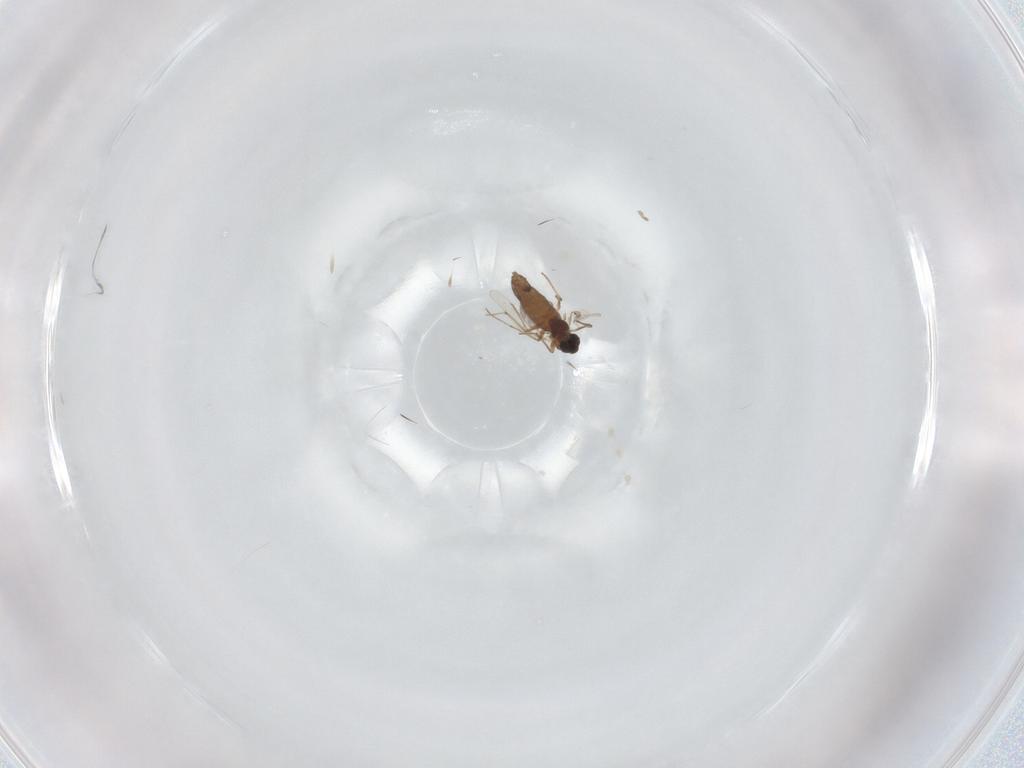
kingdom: Animalia
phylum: Arthropoda
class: Insecta
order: Diptera
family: Chironomidae
